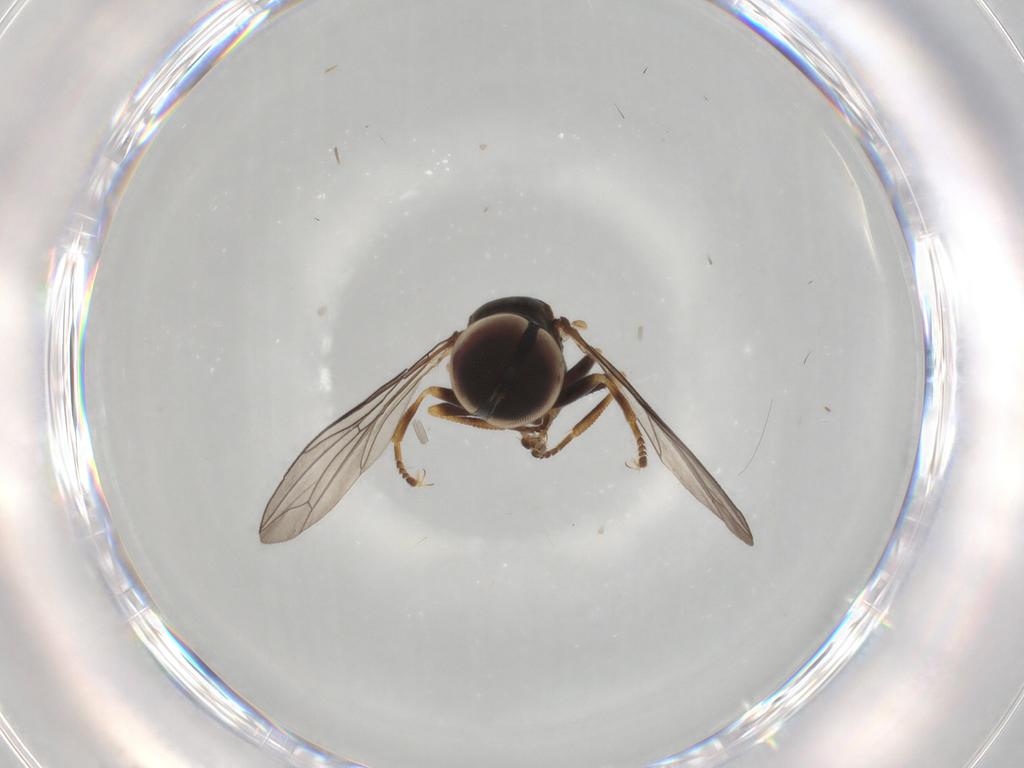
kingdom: Animalia
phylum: Arthropoda
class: Insecta
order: Diptera
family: Pipunculidae
